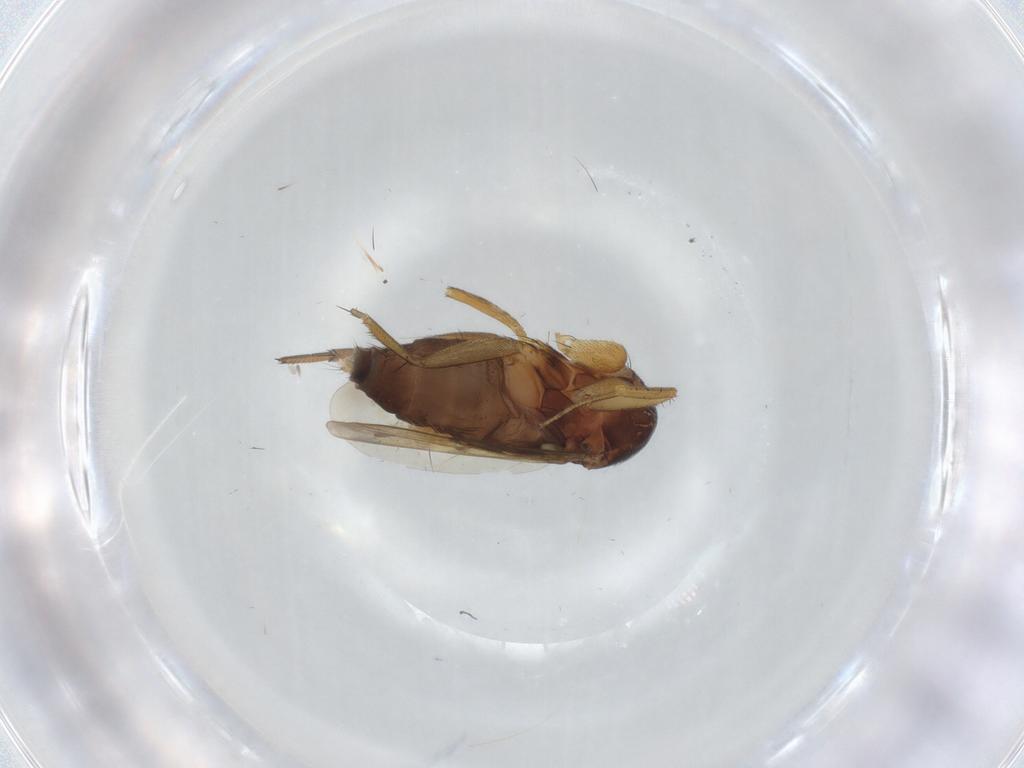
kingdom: Animalia
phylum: Arthropoda
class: Insecta
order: Diptera
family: Phoridae
